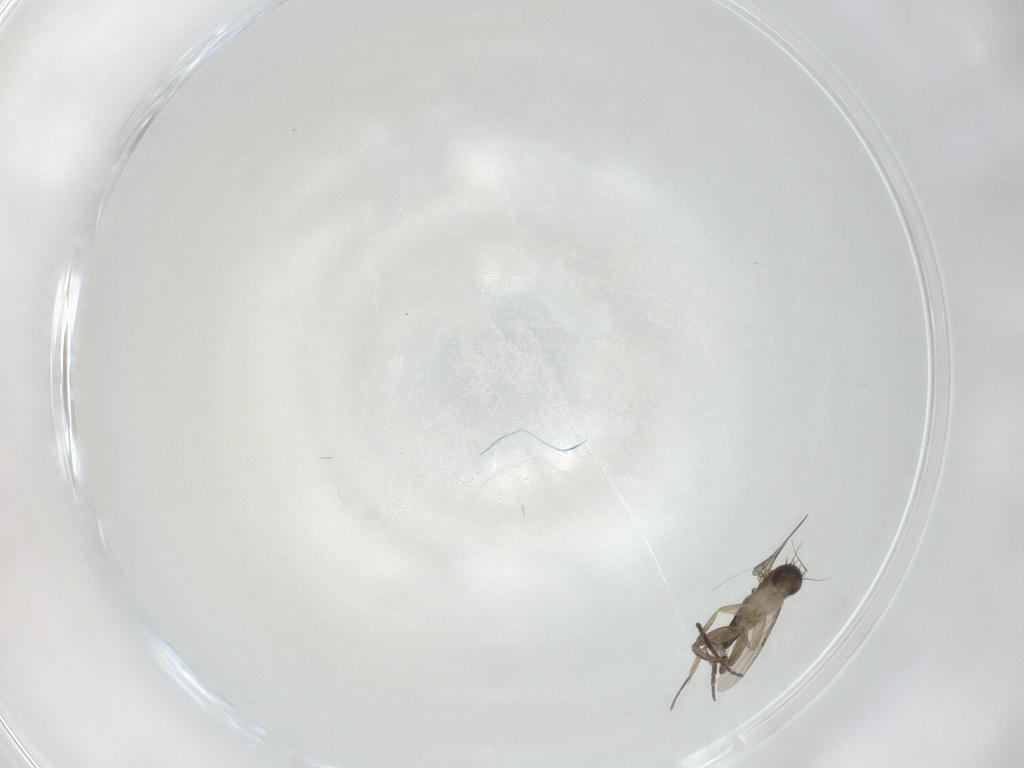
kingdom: Animalia
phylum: Arthropoda
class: Insecta
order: Diptera
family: Phoridae
